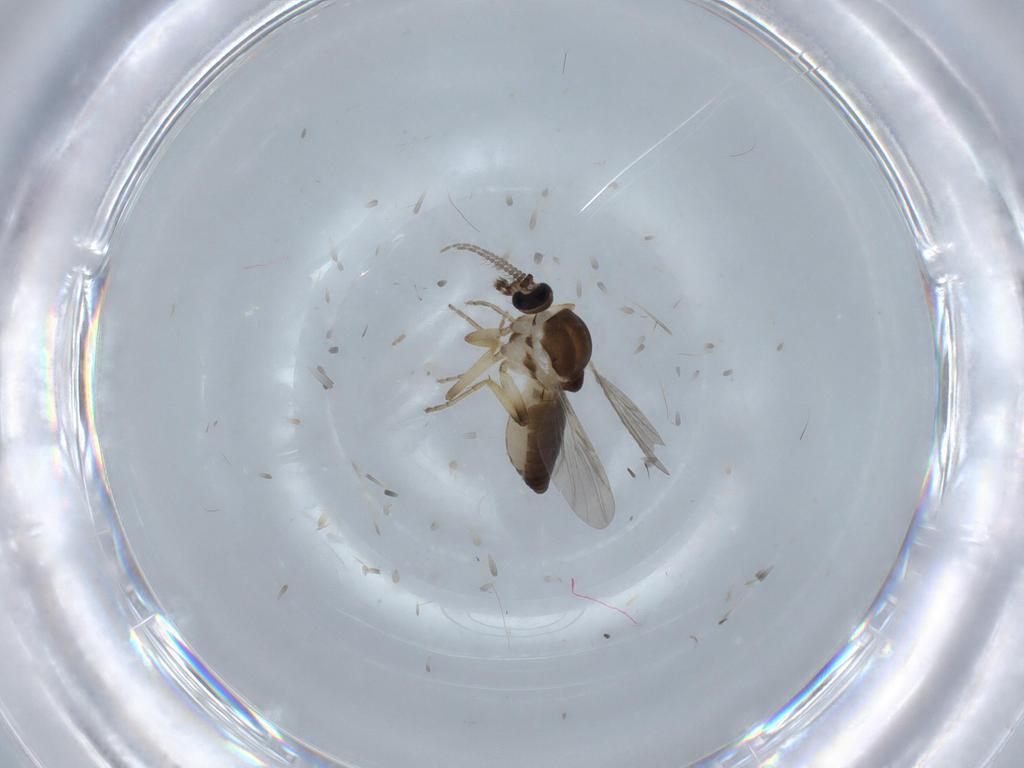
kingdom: Animalia
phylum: Arthropoda
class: Insecta
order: Diptera
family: Ceratopogonidae
